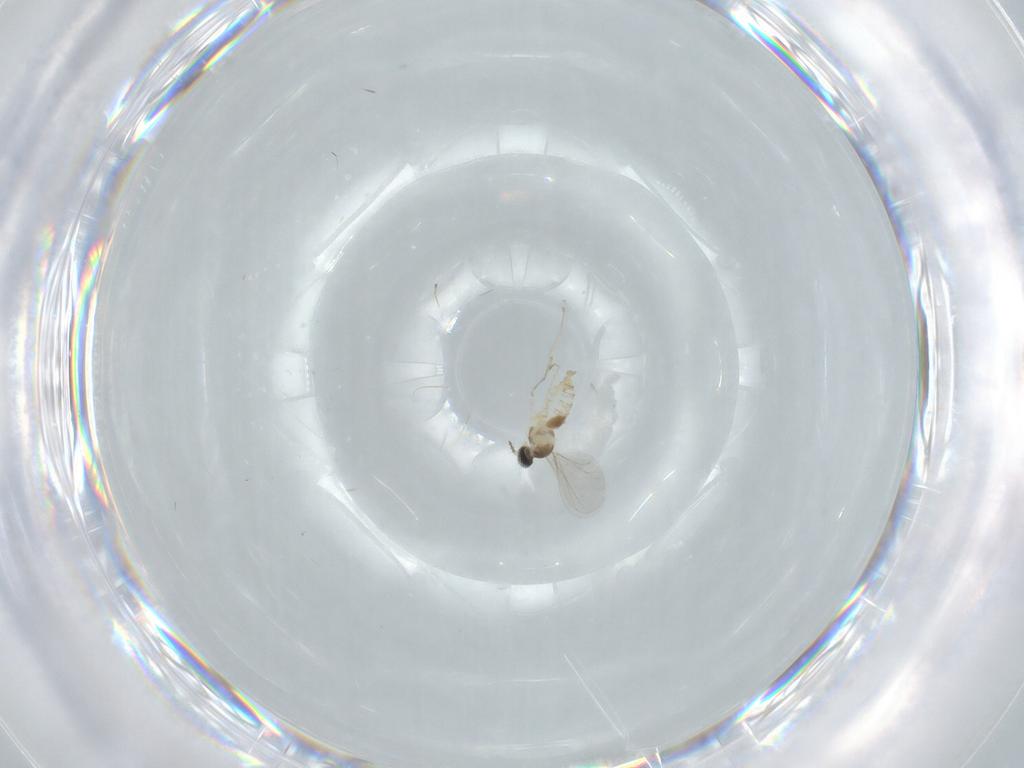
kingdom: Animalia
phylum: Arthropoda
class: Insecta
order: Diptera
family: Cecidomyiidae
